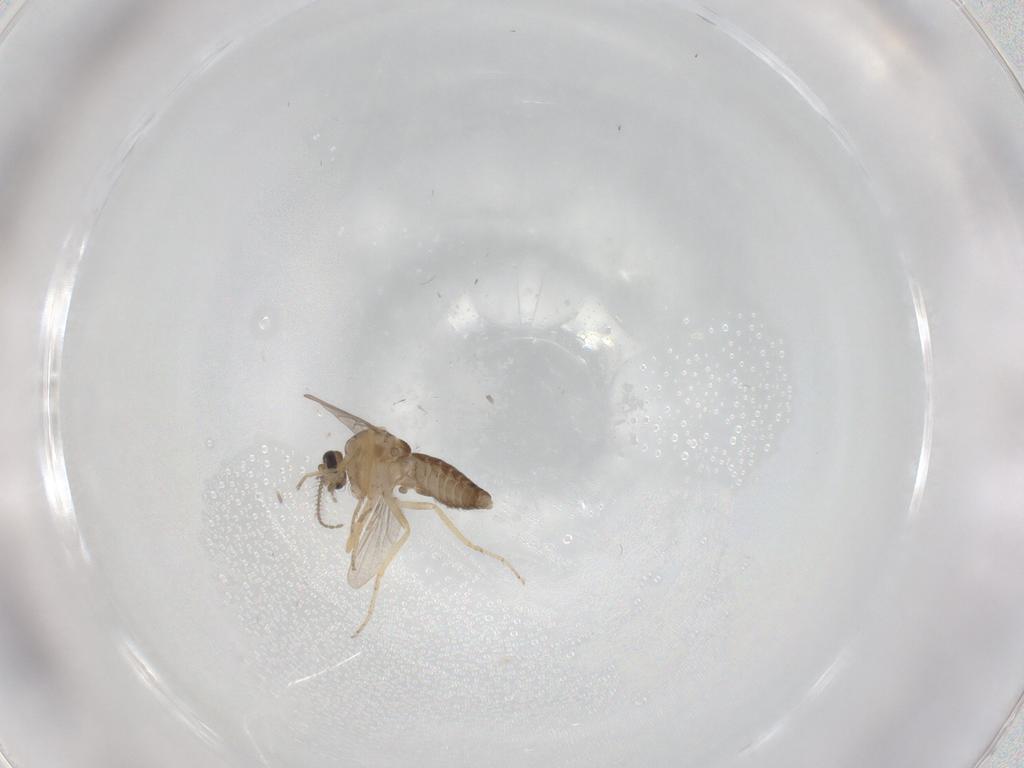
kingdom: Animalia
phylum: Arthropoda
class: Insecta
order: Diptera
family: Ceratopogonidae
